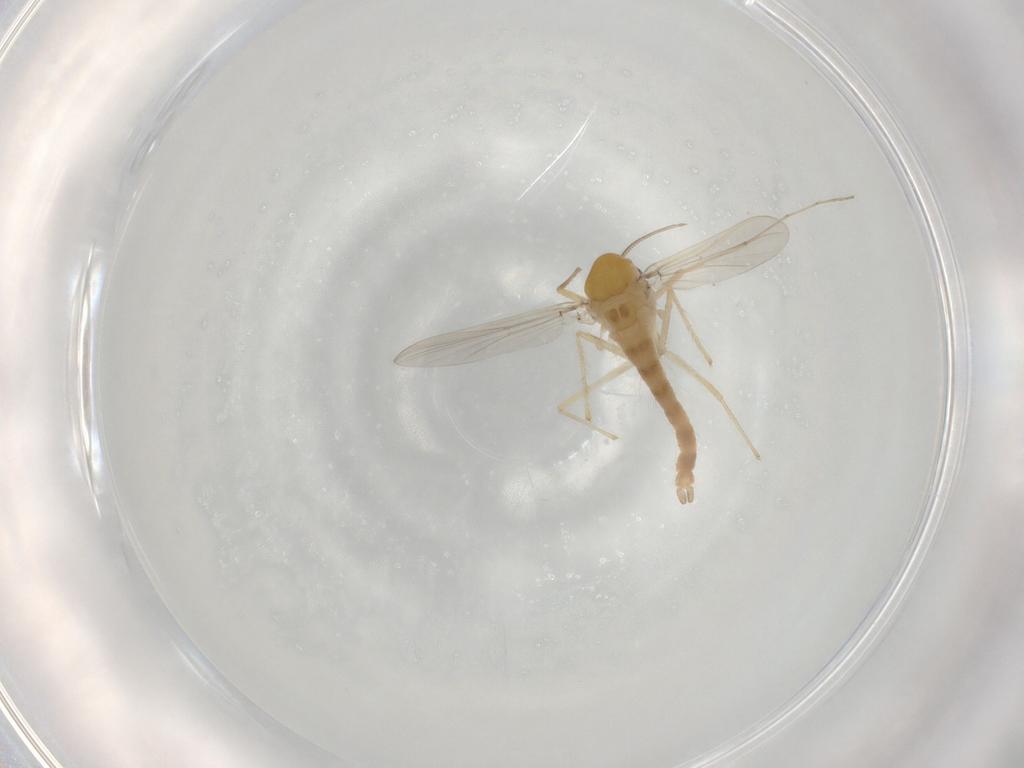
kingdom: Animalia
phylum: Arthropoda
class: Insecta
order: Diptera
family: Chironomidae
